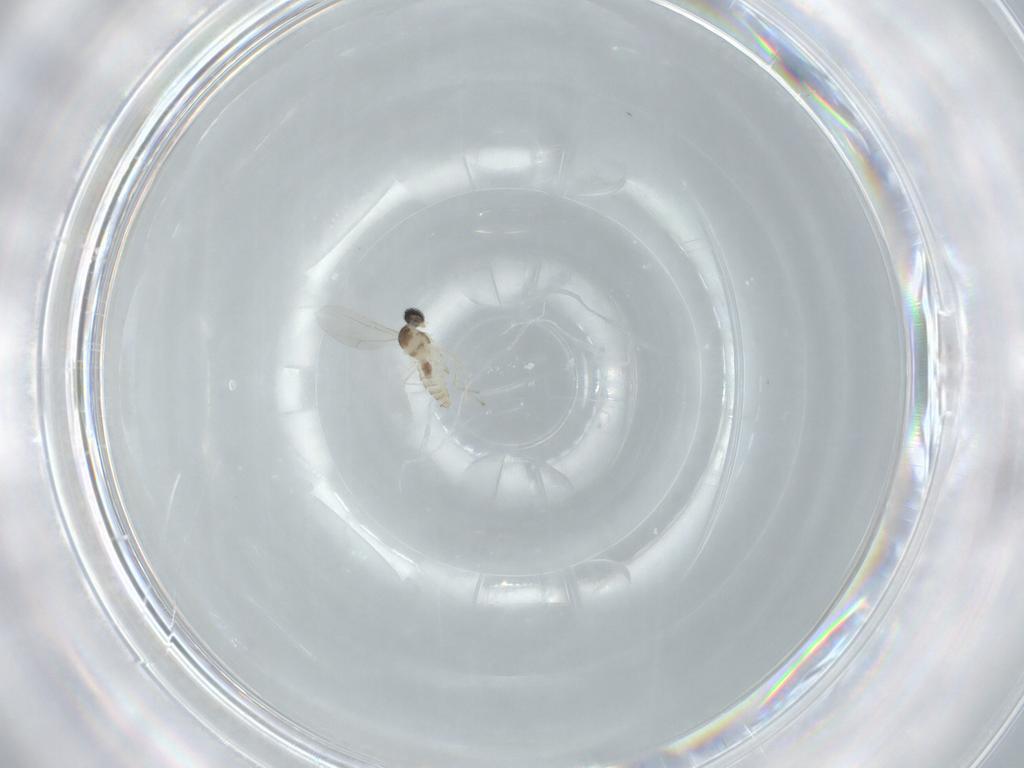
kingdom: Animalia
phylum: Arthropoda
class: Insecta
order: Diptera
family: Cecidomyiidae
